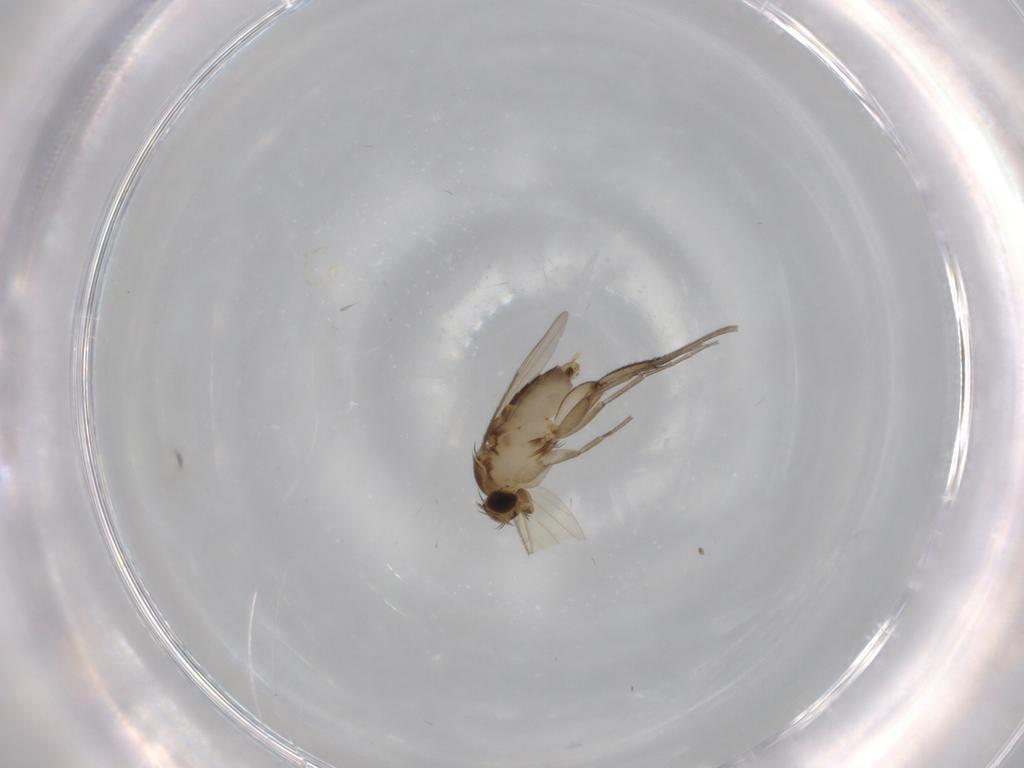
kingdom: Animalia
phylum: Arthropoda
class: Insecta
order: Diptera
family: Phoridae
